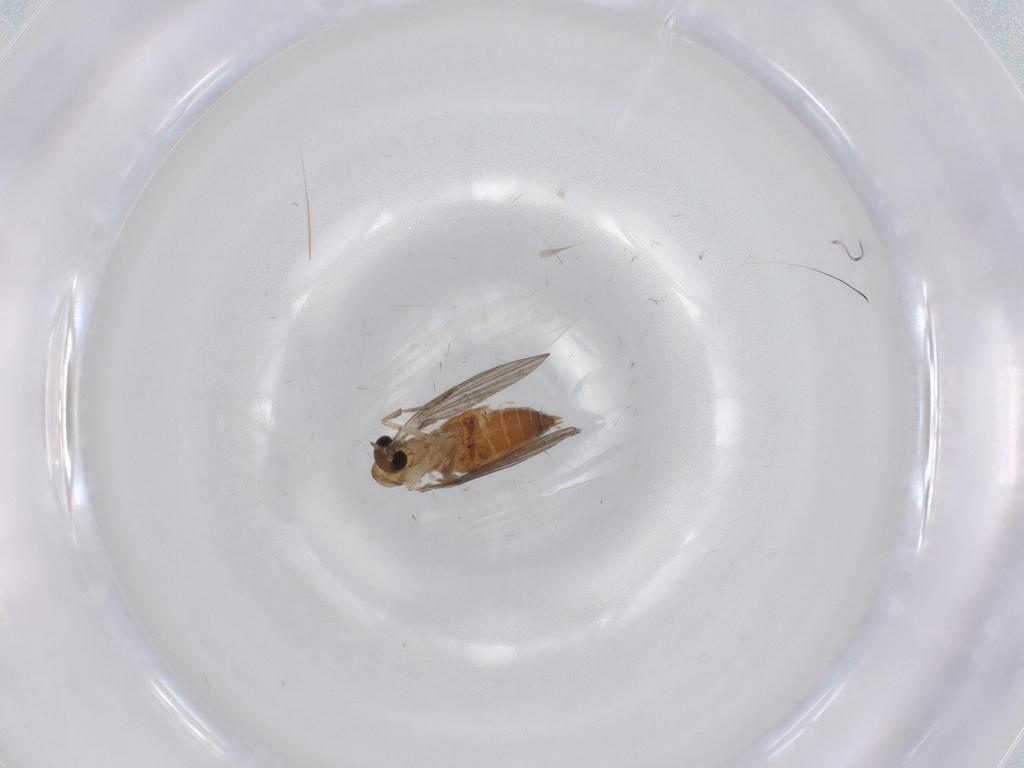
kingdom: Animalia
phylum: Arthropoda
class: Insecta
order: Diptera
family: Limoniidae
